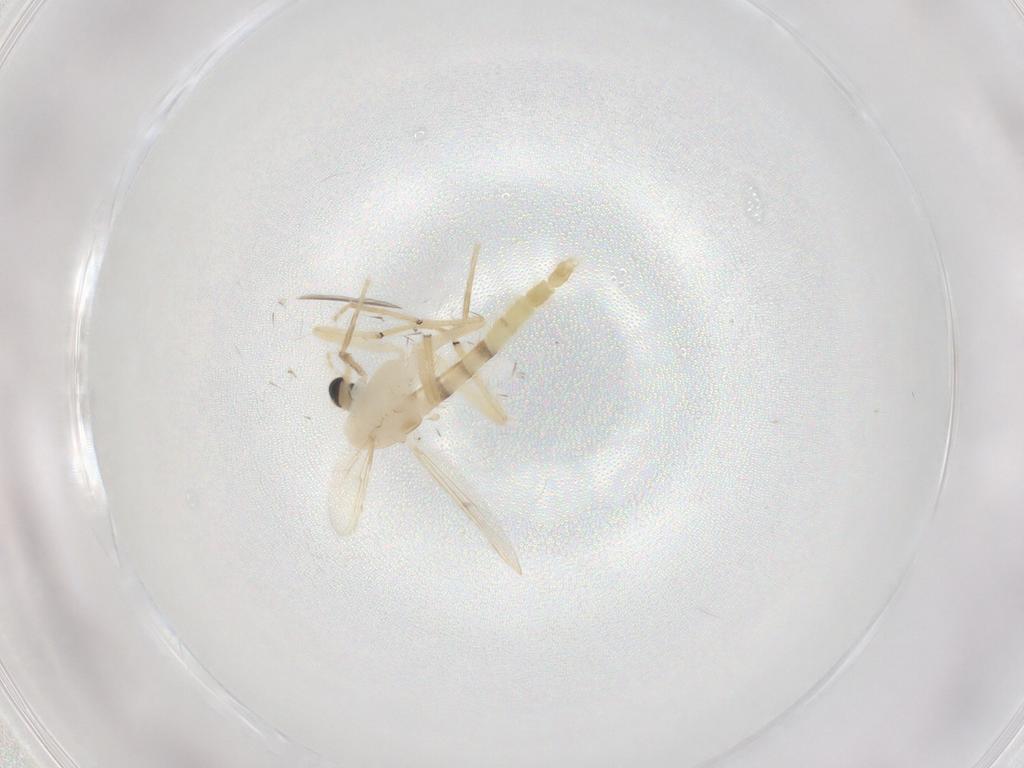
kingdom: Animalia
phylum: Arthropoda
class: Insecta
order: Diptera
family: Chironomidae
